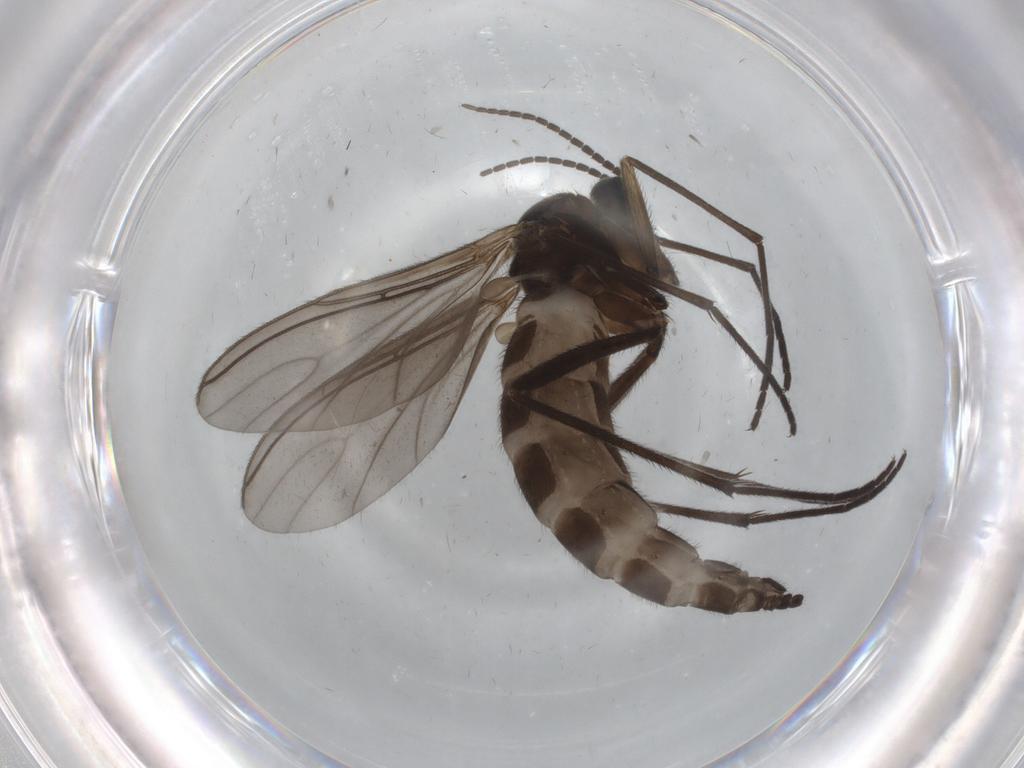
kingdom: Animalia
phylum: Arthropoda
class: Insecta
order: Diptera
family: Sciaridae
